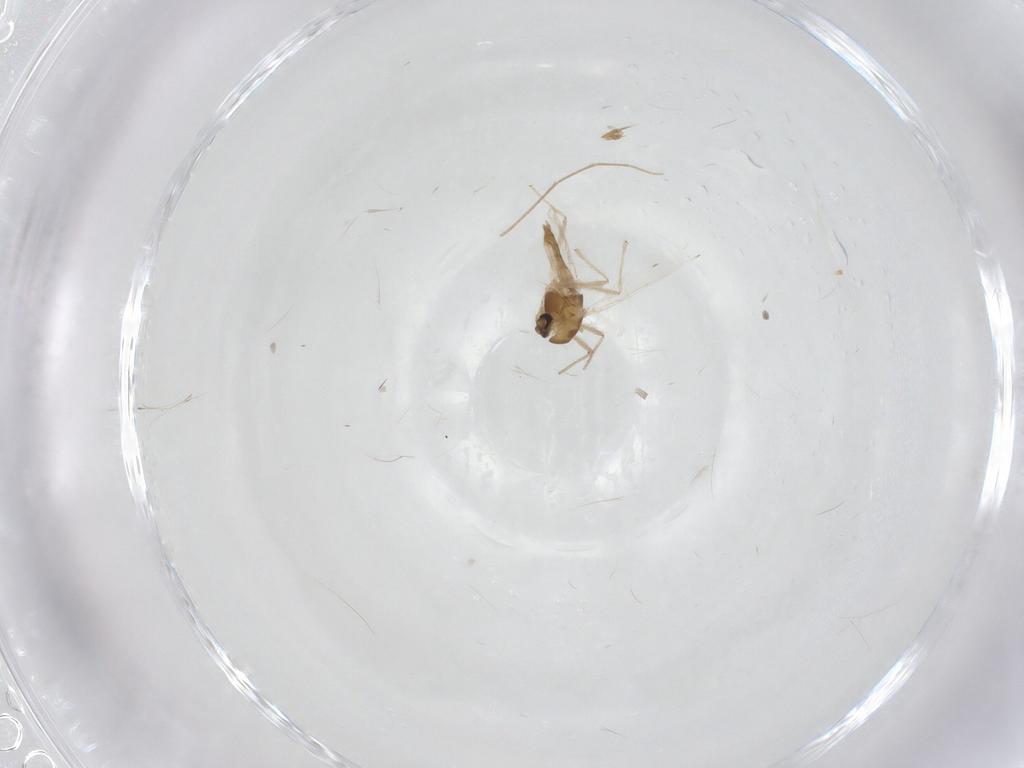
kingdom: Animalia
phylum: Arthropoda
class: Insecta
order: Diptera
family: Chironomidae
